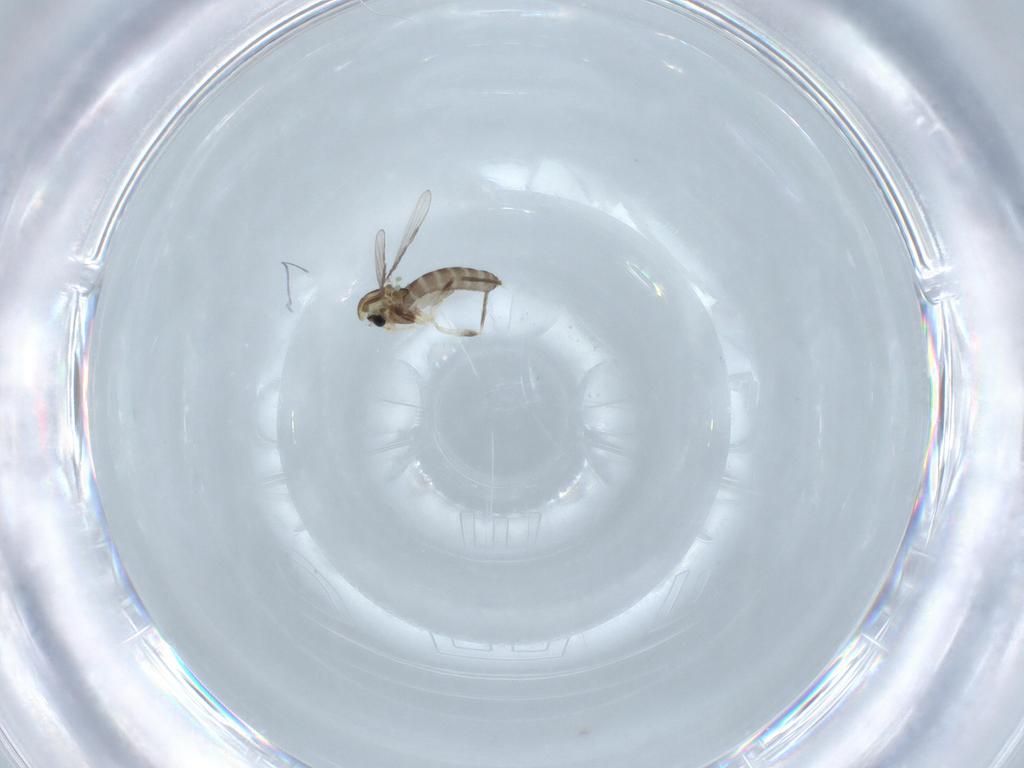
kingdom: Animalia
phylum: Arthropoda
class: Insecta
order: Diptera
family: Chironomidae
